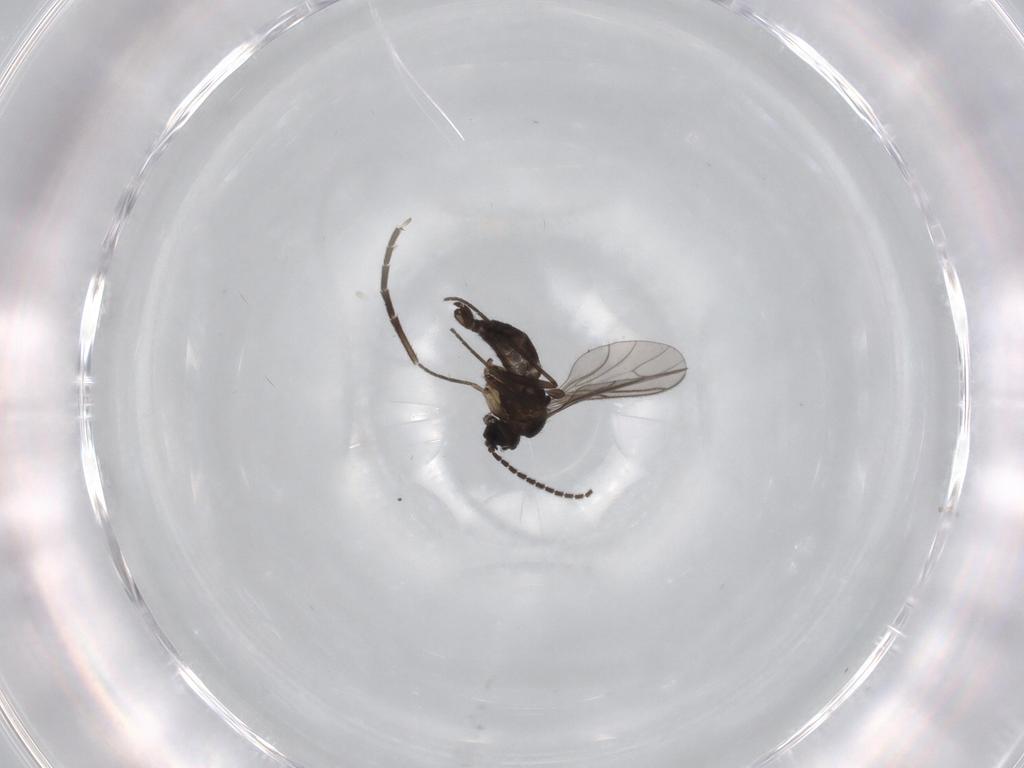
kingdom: Animalia
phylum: Arthropoda
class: Insecta
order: Diptera
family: Sciaridae
